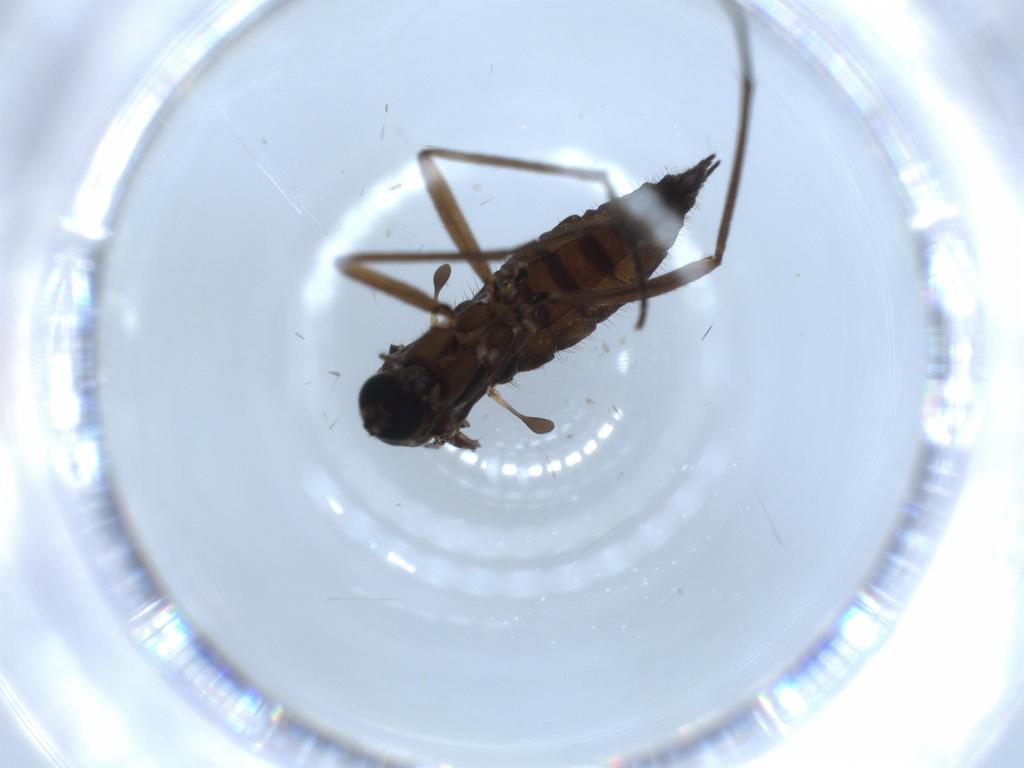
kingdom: Animalia
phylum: Arthropoda
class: Insecta
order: Diptera
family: Sciaridae
